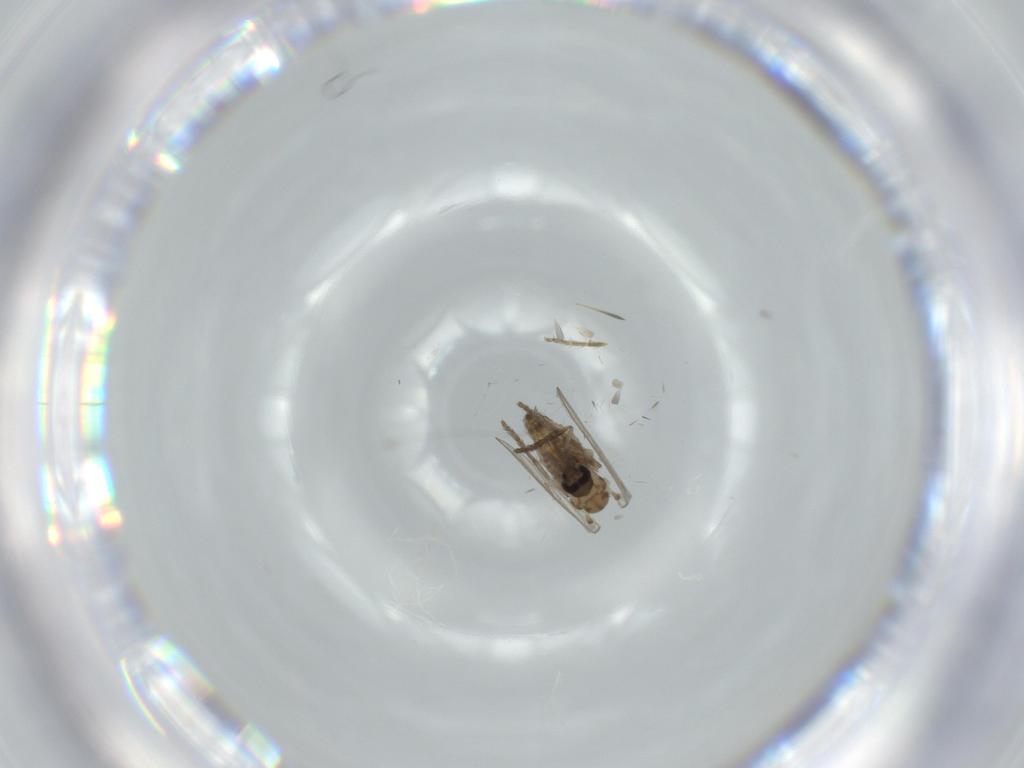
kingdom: Animalia
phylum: Arthropoda
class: Insecta
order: Diptera
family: Psychodidae
